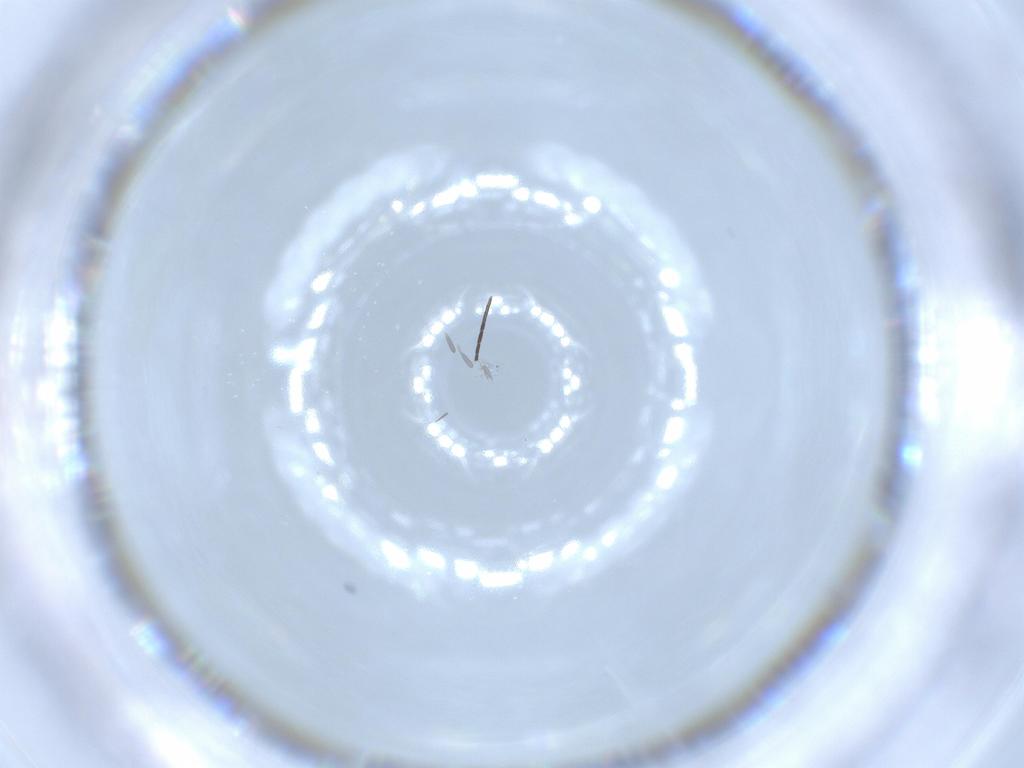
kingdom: Animalia
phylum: Arthropoda
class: Insecta
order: Diptera
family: Cecidomyiidae
